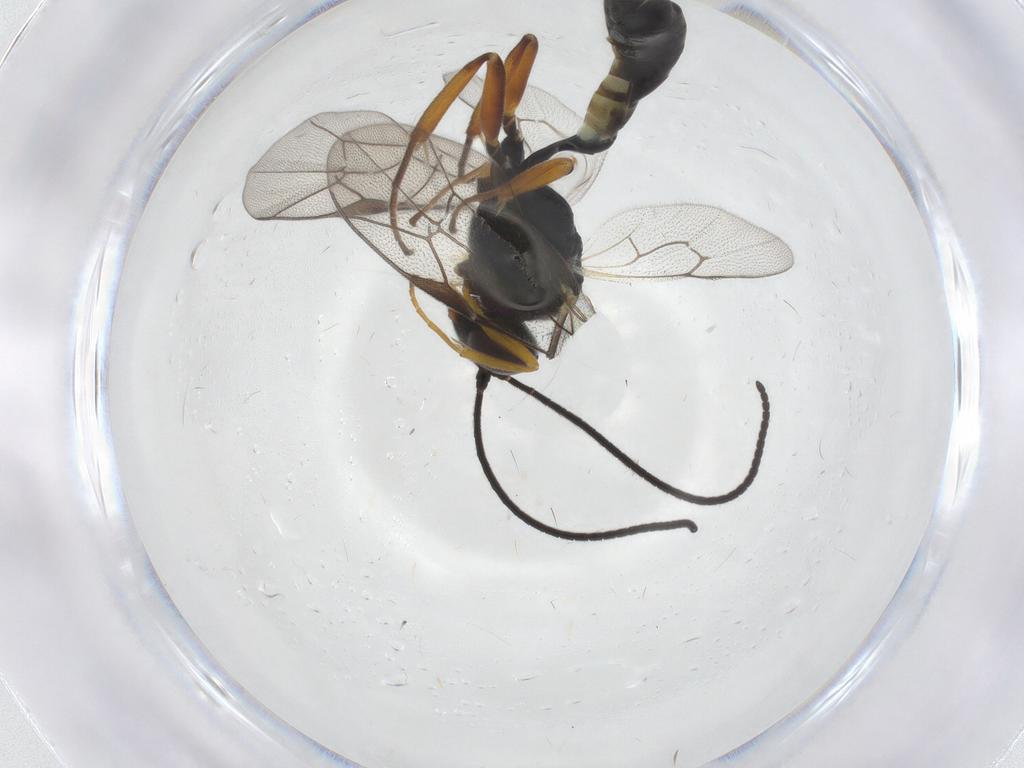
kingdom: Animalia
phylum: Arthropoda
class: Insecta
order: Hymenoptera
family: Ichneumonidae
